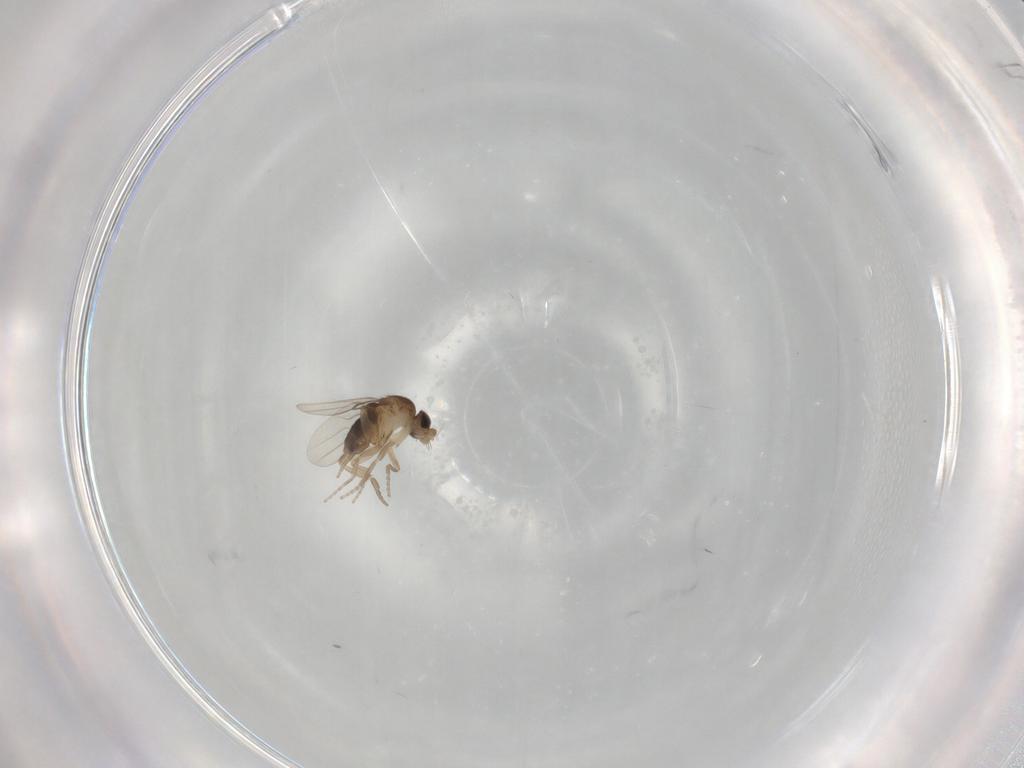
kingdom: Animalia
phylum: Arthropoda
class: Insecta
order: Diptera
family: Phoridae
